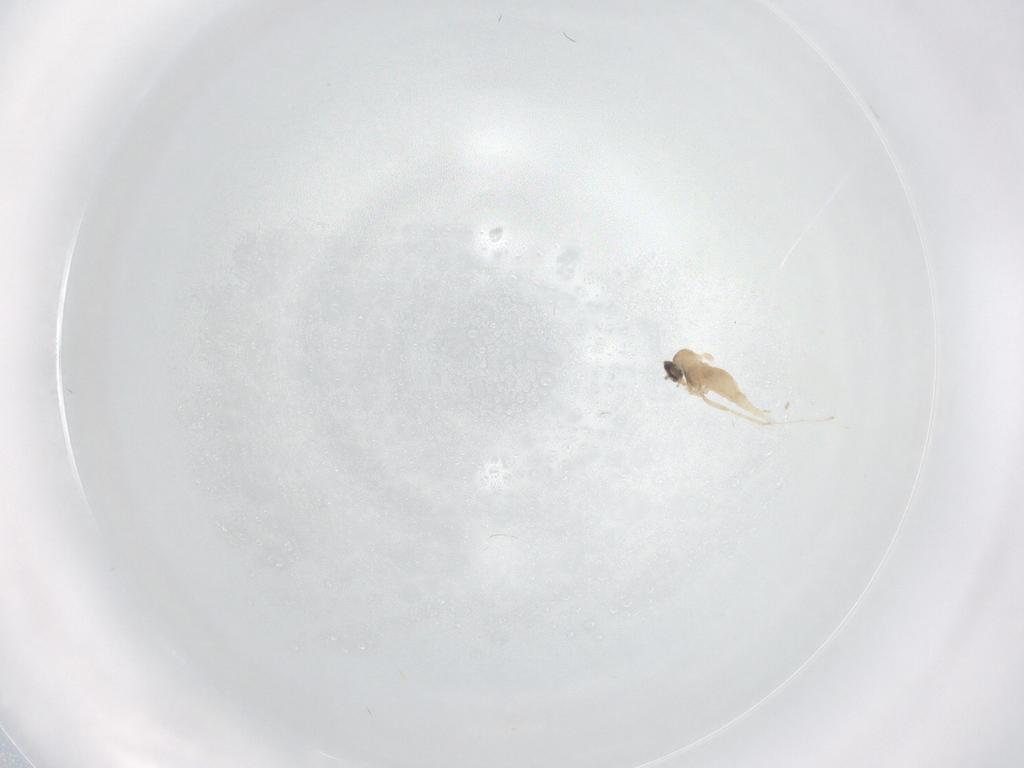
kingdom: Animalia
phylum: Arthropoda
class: Insecta
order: Diptera
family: Cecidomyiidae
